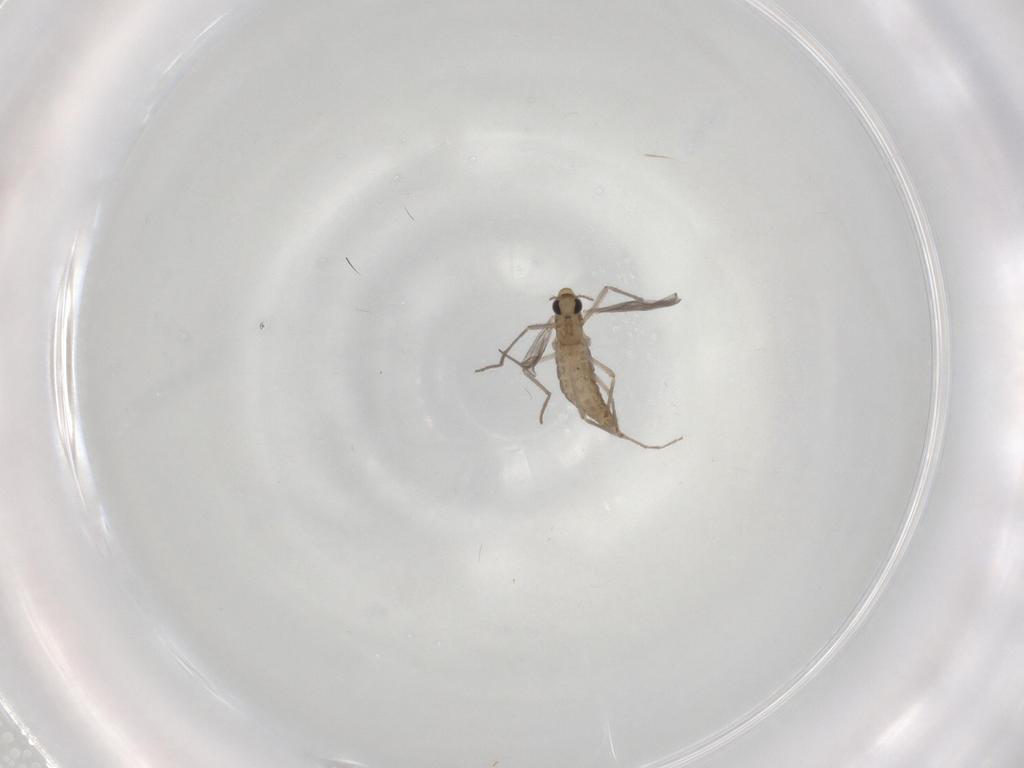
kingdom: Animalia
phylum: Arthropoda
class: Insecta
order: Diptera
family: Chironomidae
